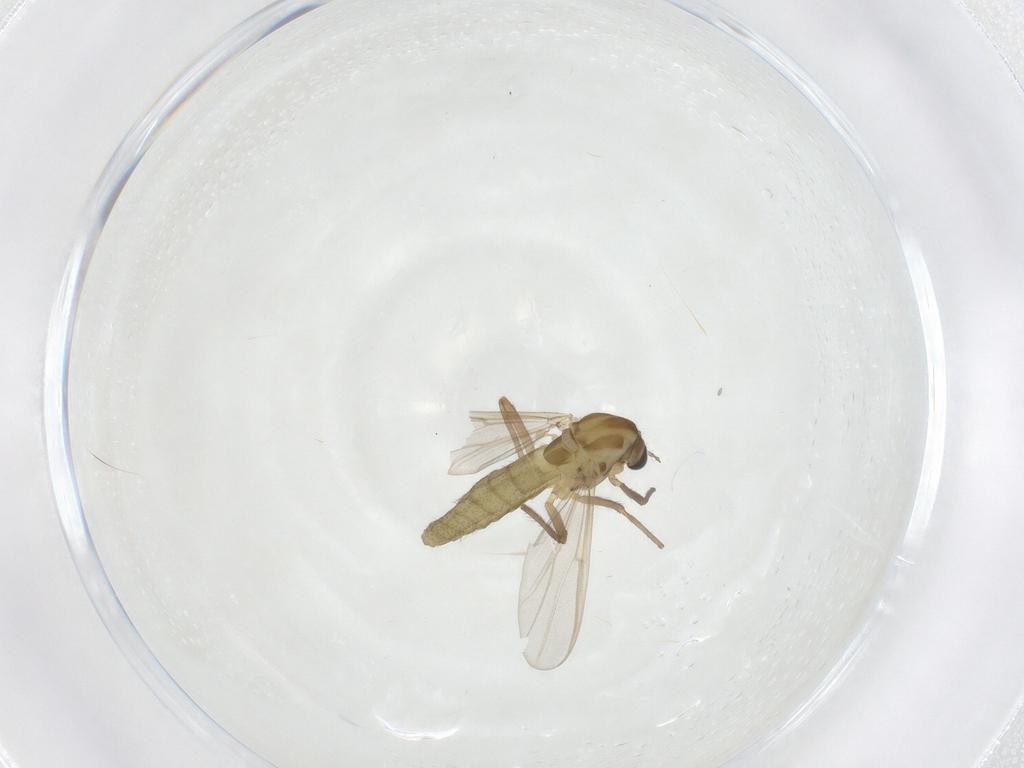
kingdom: Animalia
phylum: Arthropoda
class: Insecta
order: Diptera
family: Chironomidae
